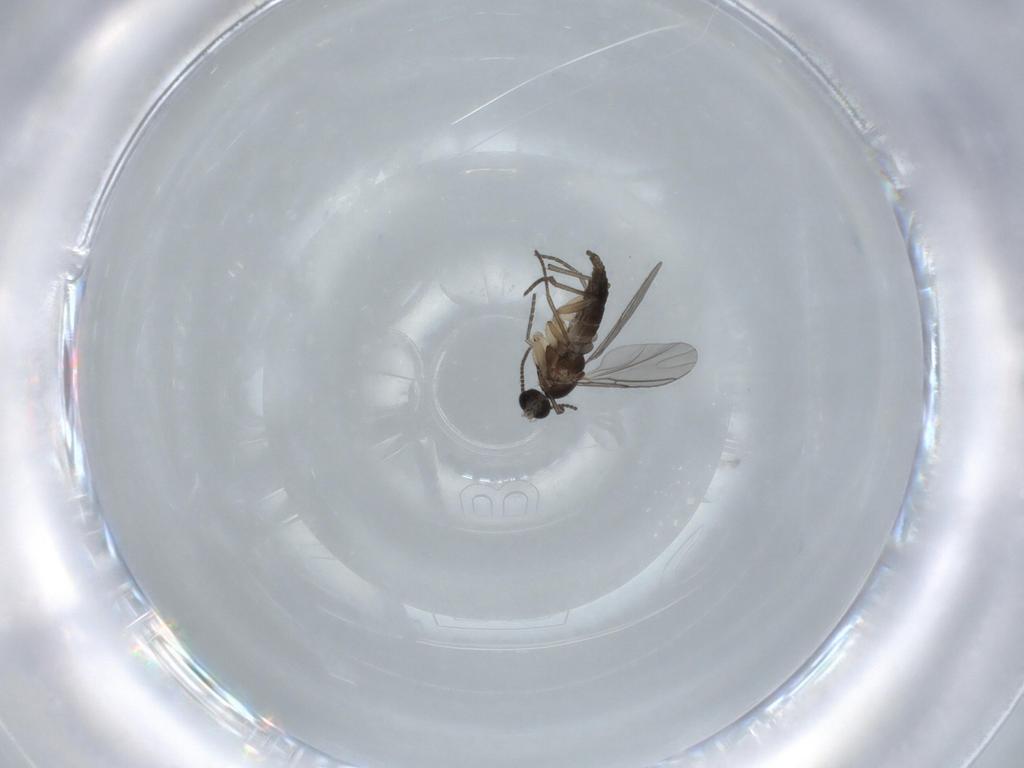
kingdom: Animalia
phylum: Arthropoda
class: Insecta
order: Diptera
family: Sciaridae
